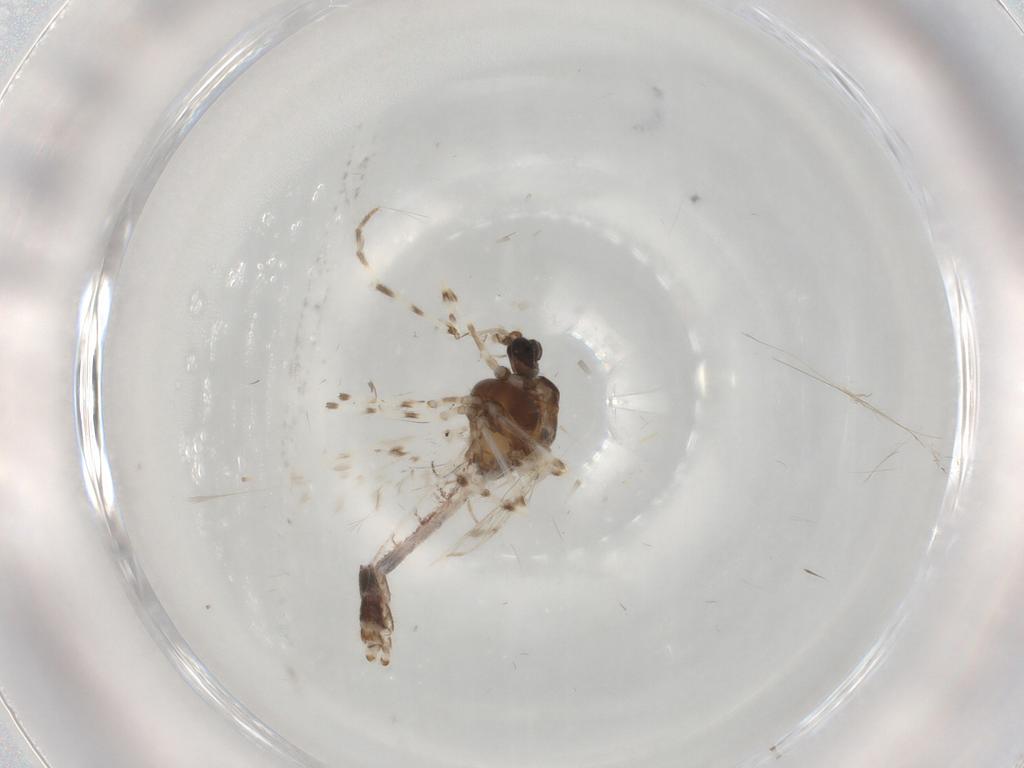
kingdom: Animalia
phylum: Arthropoda
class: Insecta
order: Diptera
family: Chironomidae
